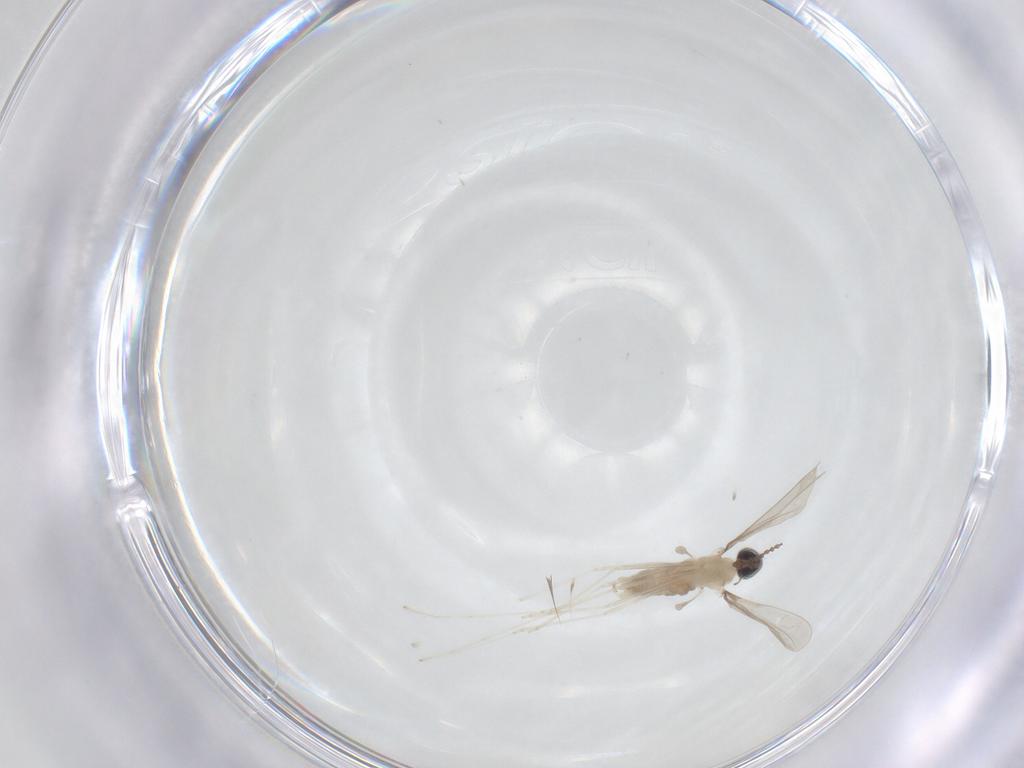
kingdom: Animalia
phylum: Arthropoda
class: Insecta
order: Diptera
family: Cecidomyiidae
